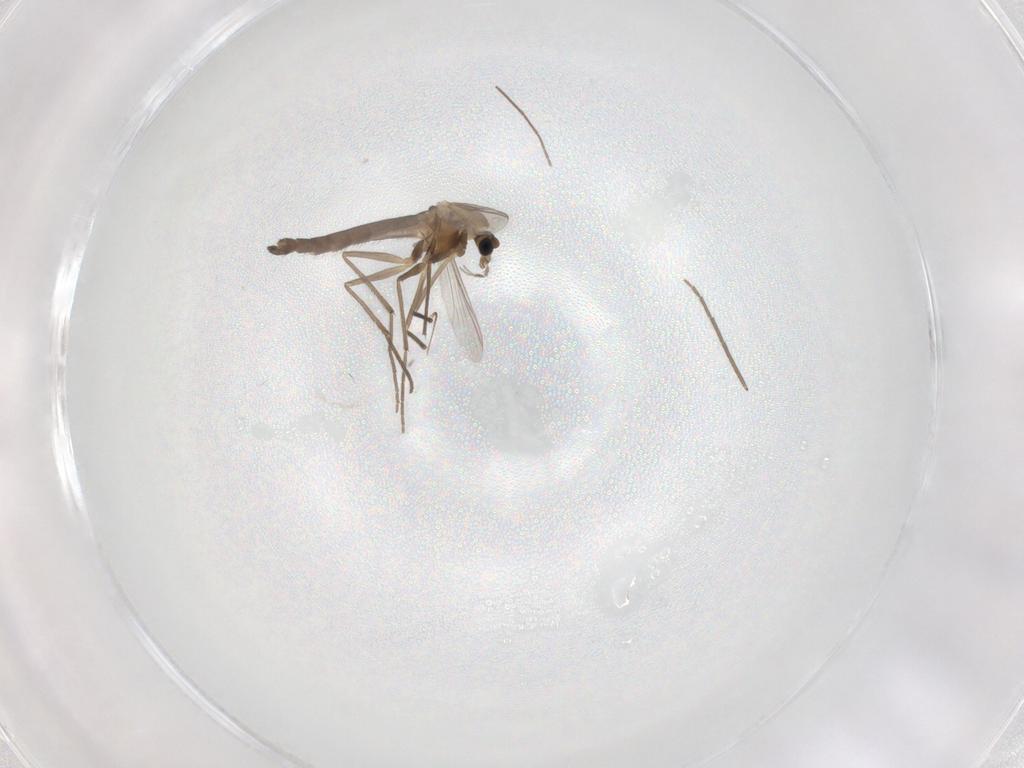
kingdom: Animalia
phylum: Arthropoda
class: Insecta
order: Diptera
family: Chironomidae
